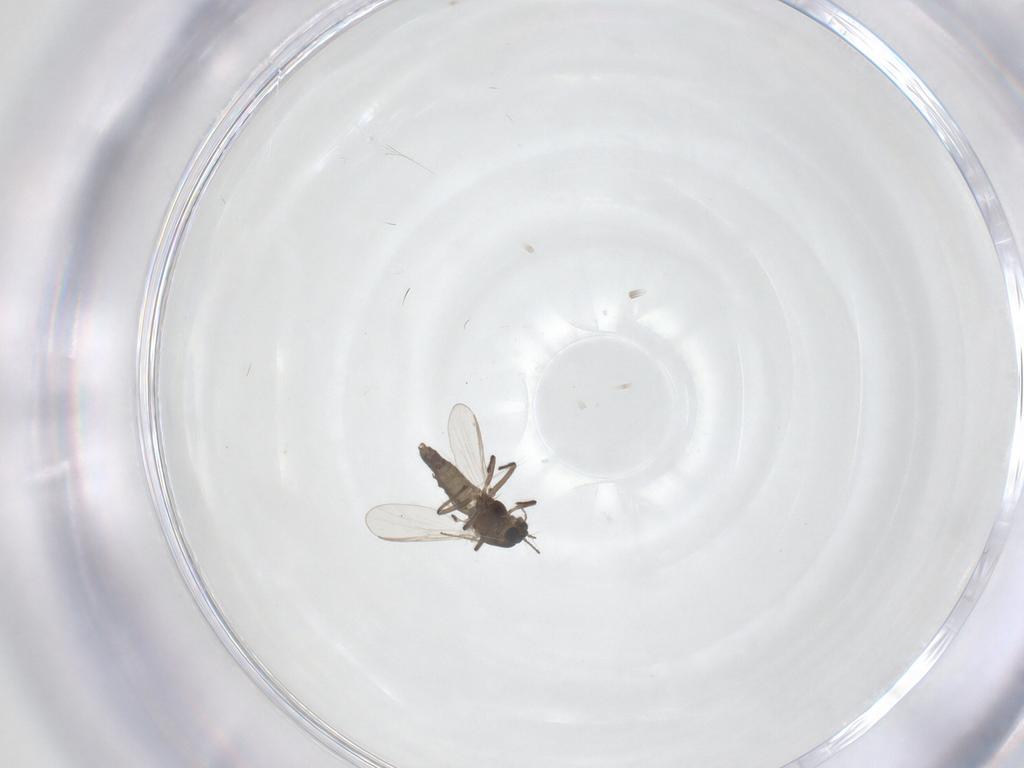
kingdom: Animalia
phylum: Arthropoda
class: Insecta
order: Diptera
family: Chironomidae
